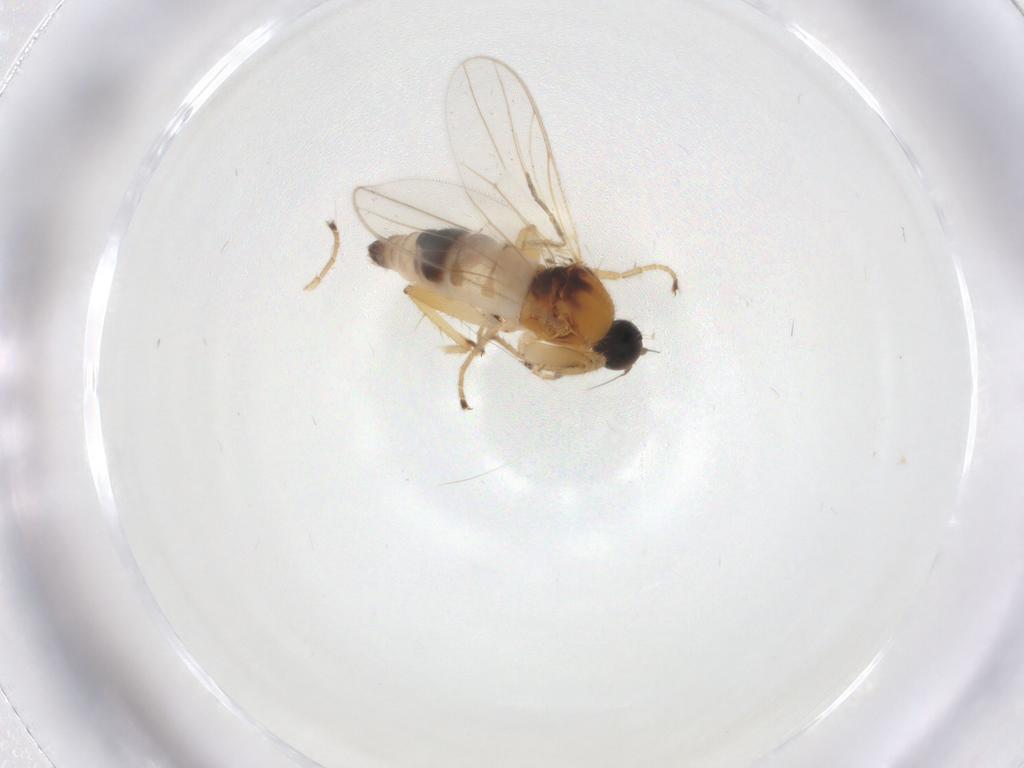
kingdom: Animalia
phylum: Arthropoda
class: Insecta
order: Diptera
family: Hybotidae
